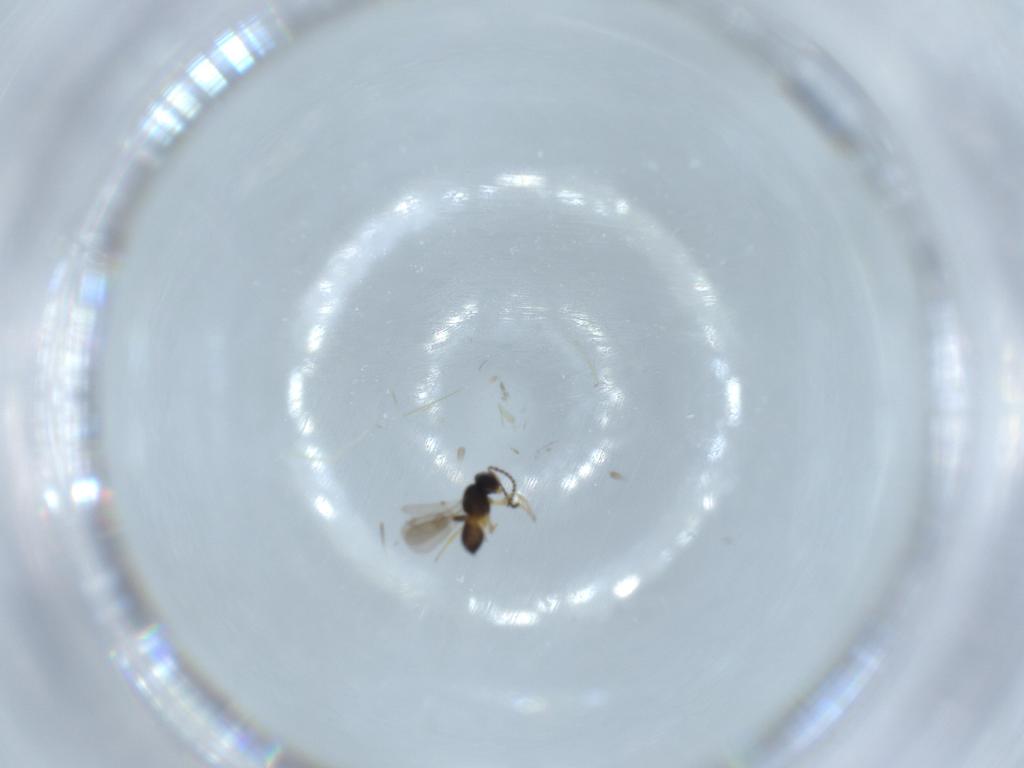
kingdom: Animalia
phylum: Arthropoda
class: Insecta
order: Hymenoptera
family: Scelionidae
